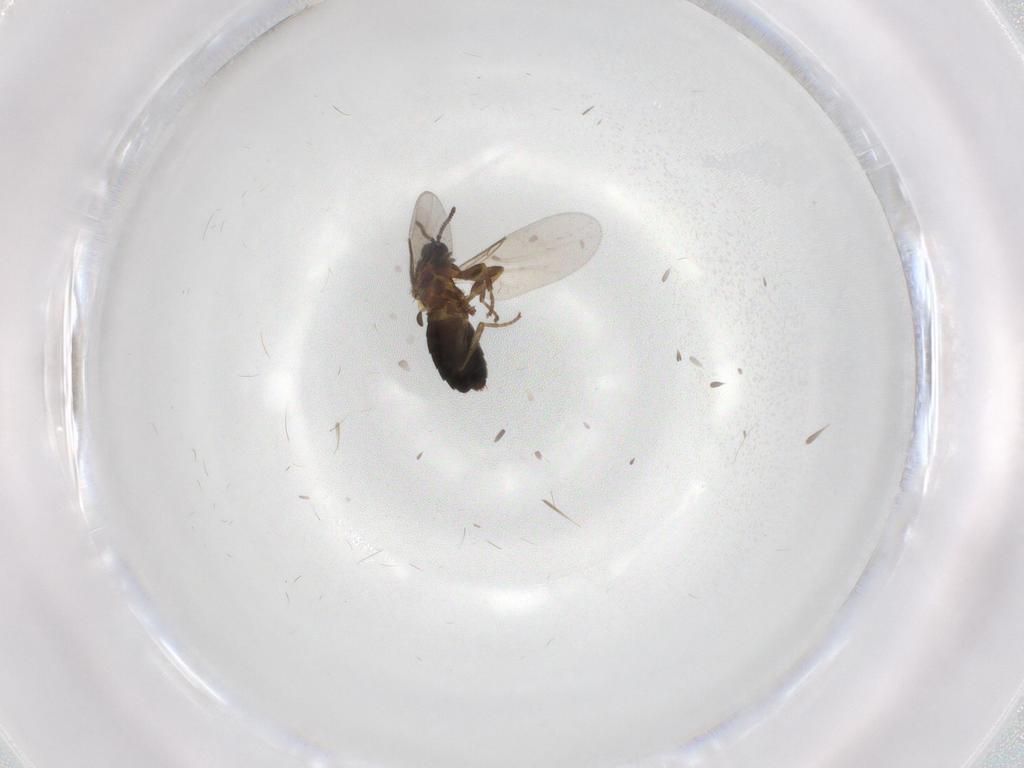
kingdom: Animalia
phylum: Arthropoda
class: Insecta
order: Diptera
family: Scatopsidae
